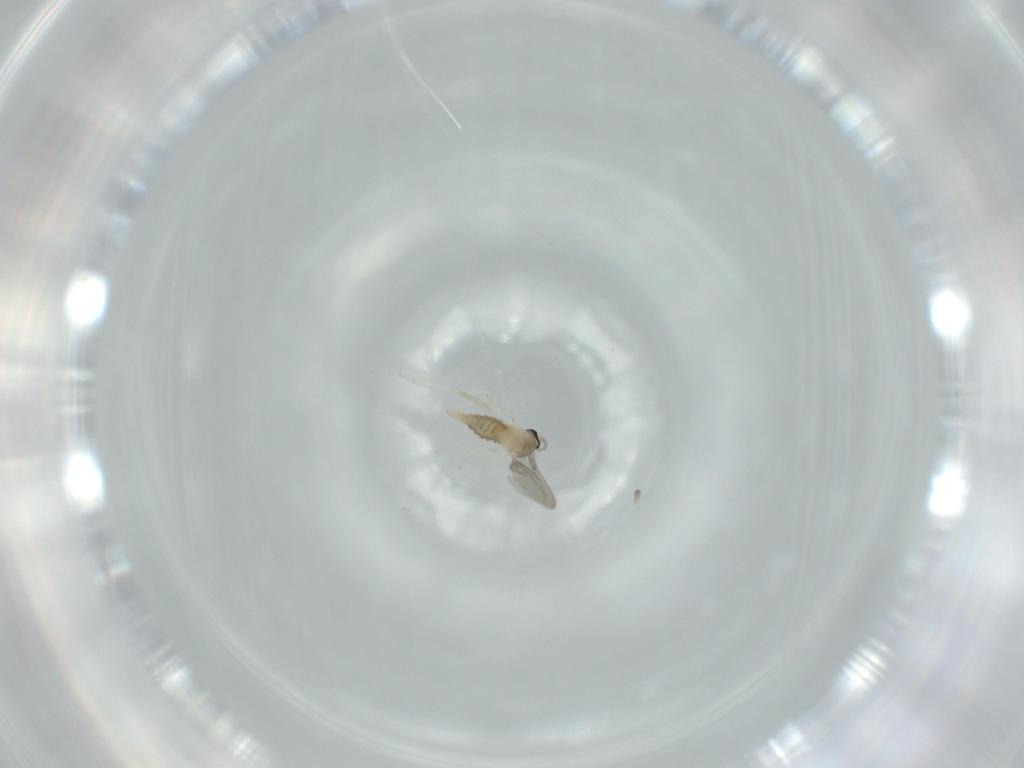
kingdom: Animalia
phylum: Arthropoda
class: Insecta
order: Diptera
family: Cecidomyiidae
